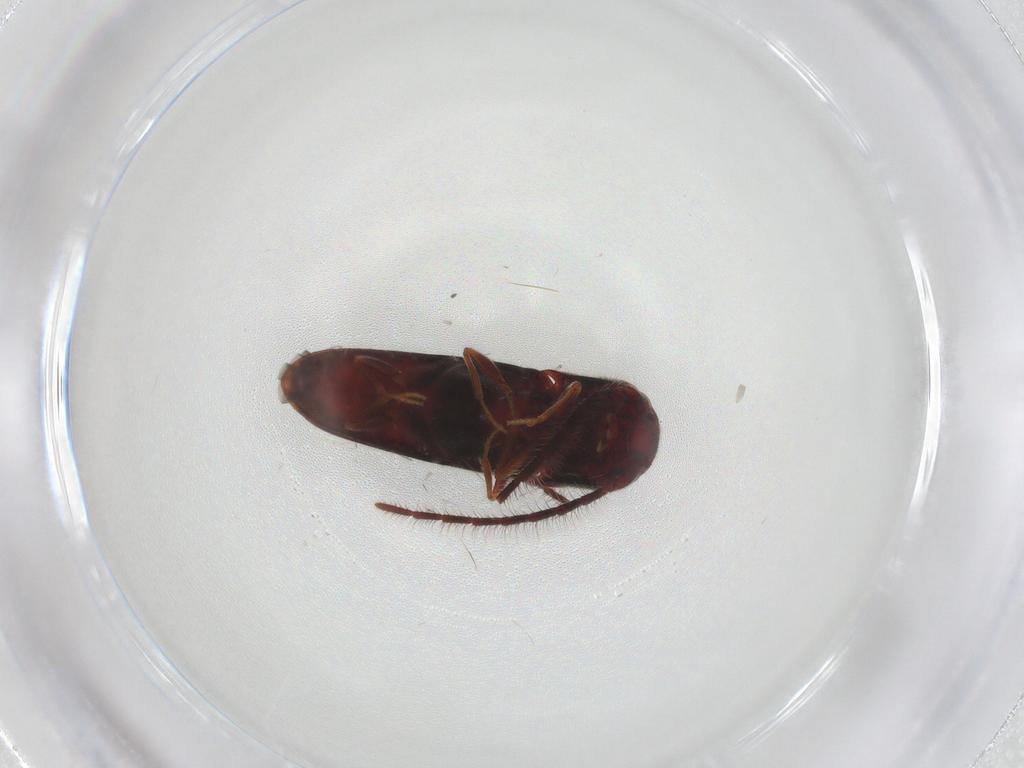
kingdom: Animalia
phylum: Arthropoda
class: Insecta
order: Coleoptera
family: Eucnemidae
